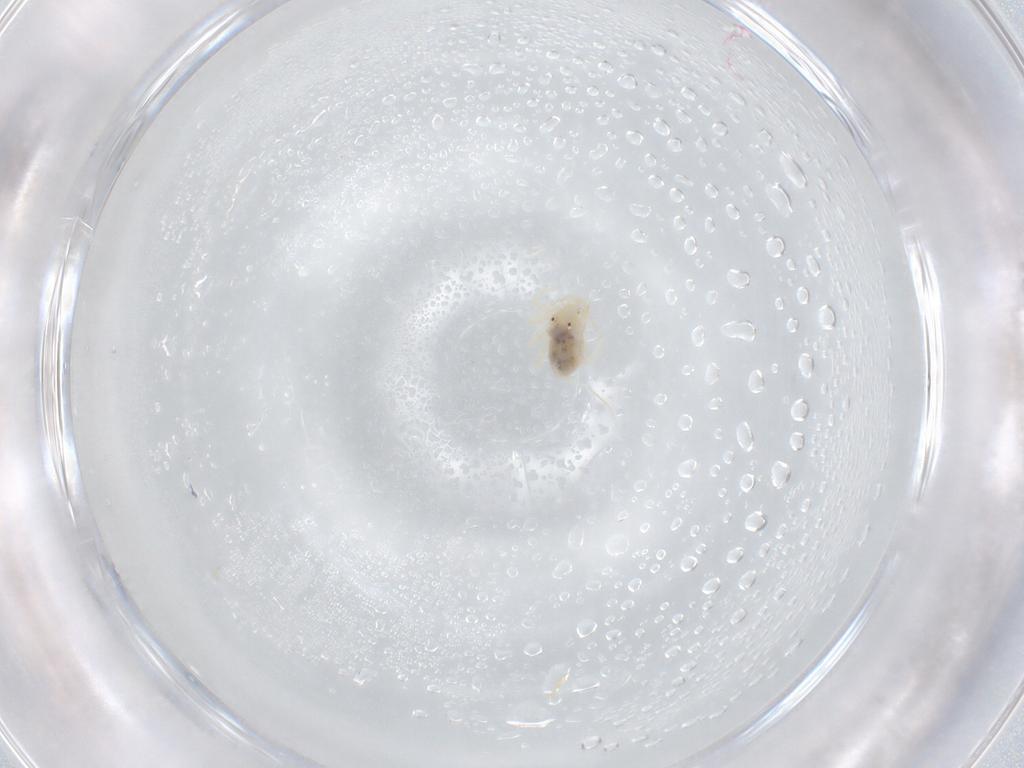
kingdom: Animalia
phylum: Arthropoda
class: Arachnida
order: Trombidiformes
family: Anystidae
